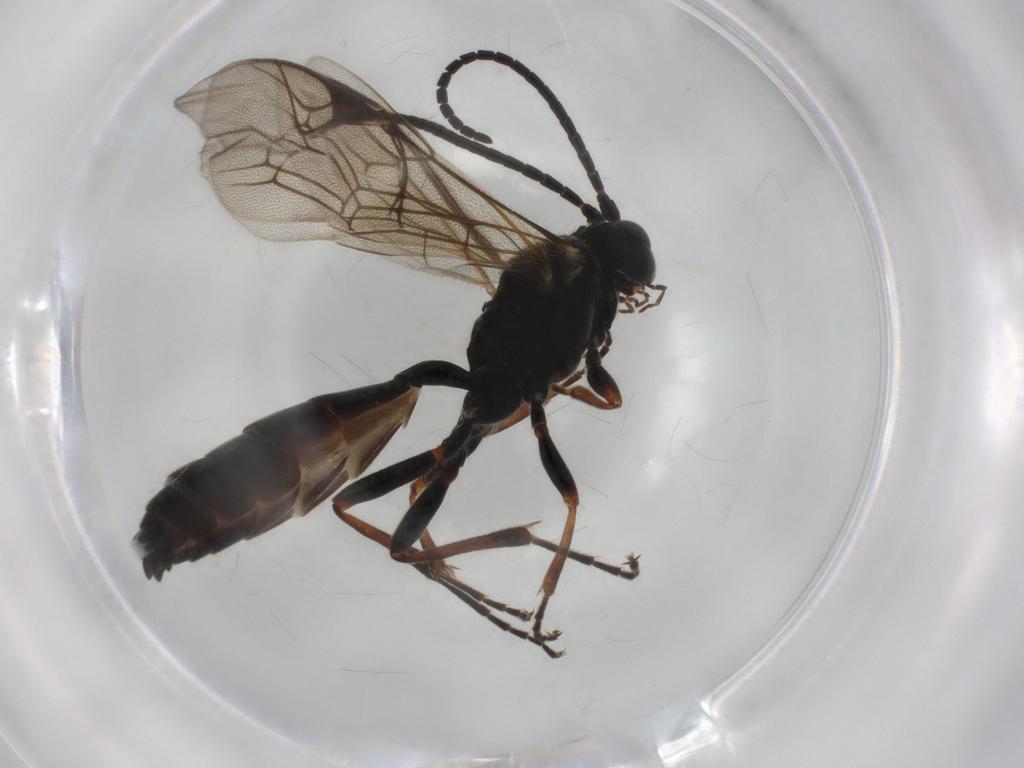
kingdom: Animalia
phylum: Arthropoda
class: Insecta
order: Hymenoptera
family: Ichneumonidae
